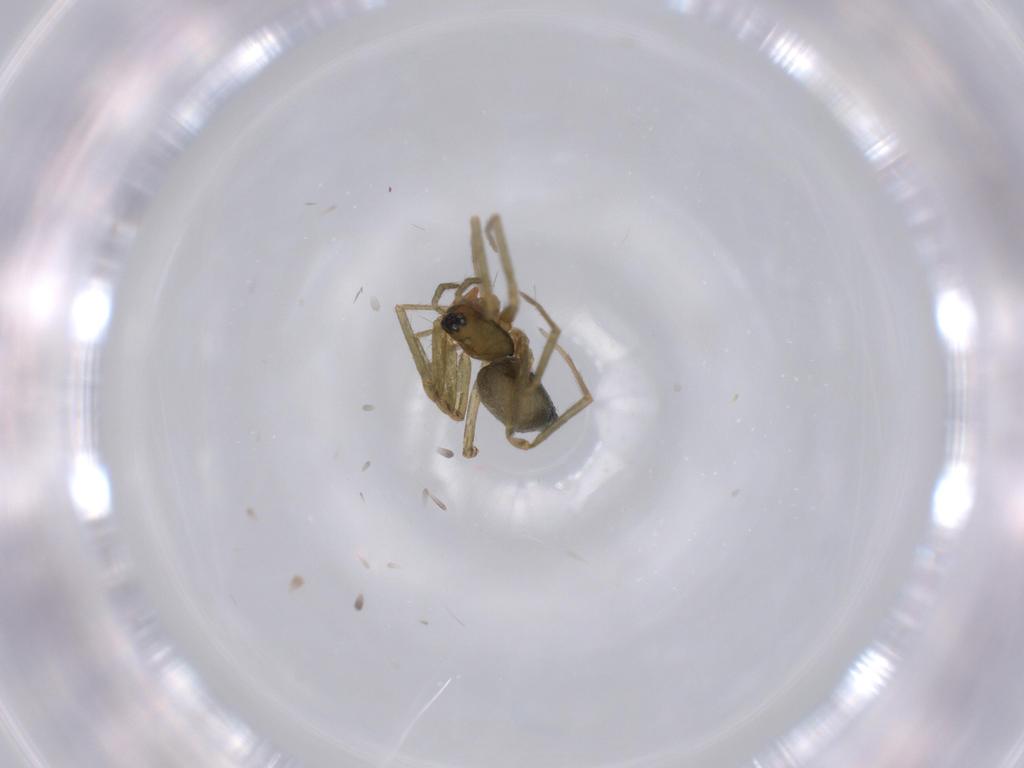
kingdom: Animalia
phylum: Arthropoda
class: Arachnida
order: Araneae
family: Linyphiidae
